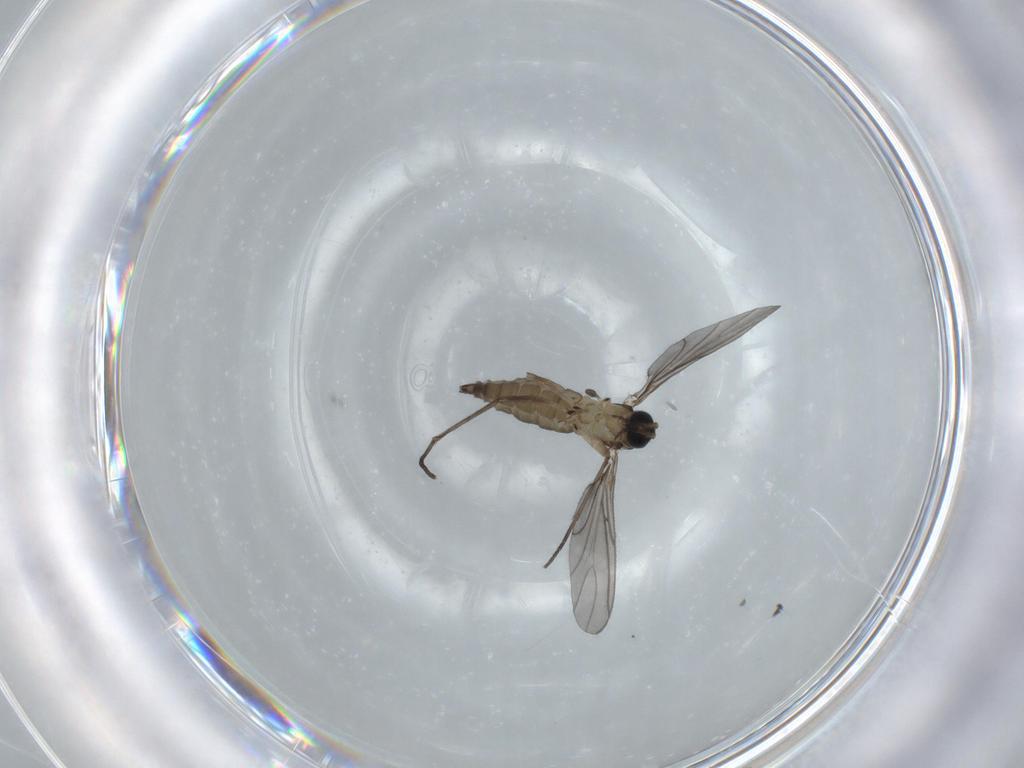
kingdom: Animalia
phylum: Arthropoda
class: Insecta
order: Diptera
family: Sciaridae
